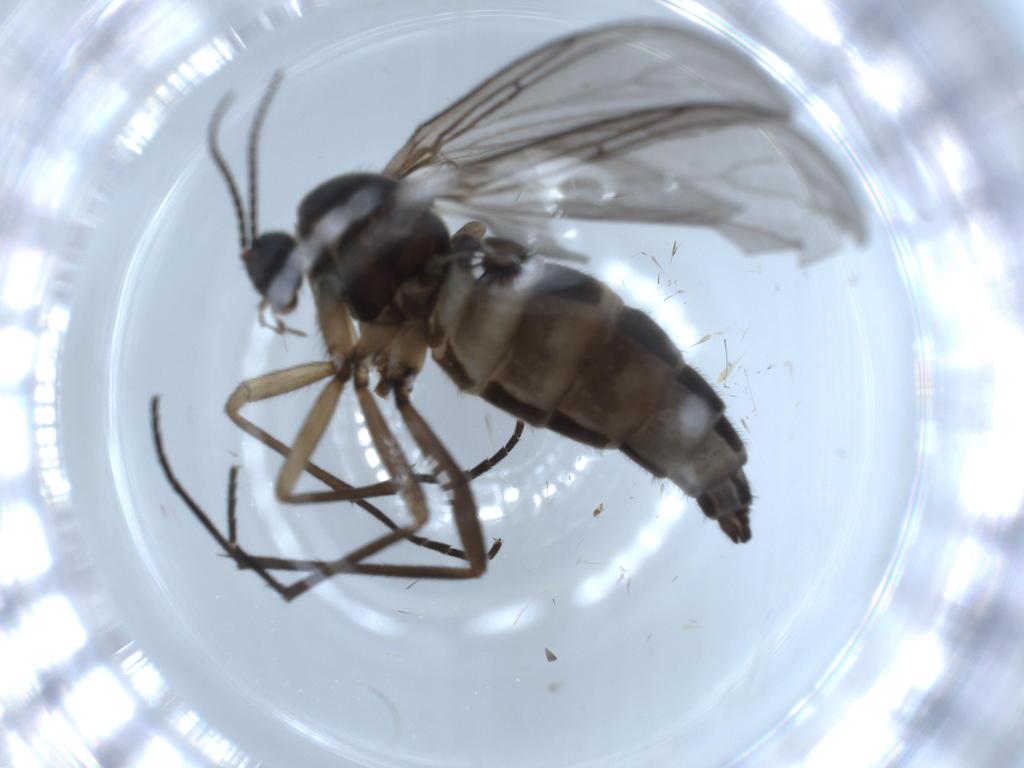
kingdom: Animalia
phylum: Arthropoda
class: Insecta
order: Diptera
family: Sciaridae
